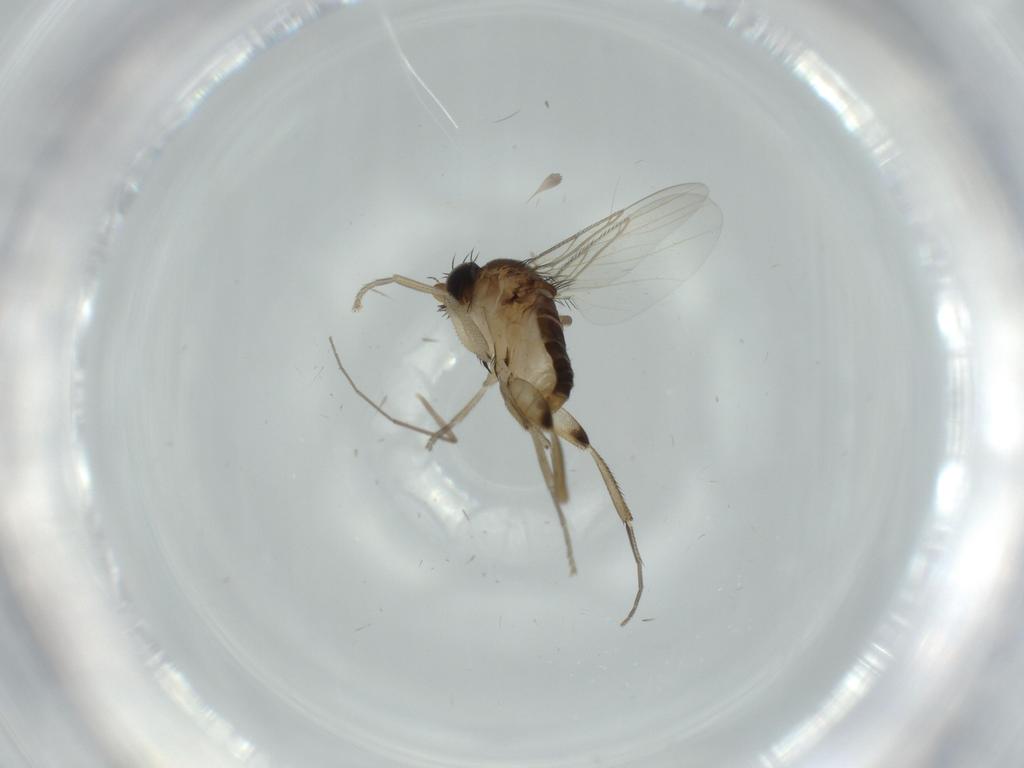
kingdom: Animalia
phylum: Arthropoda
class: Insecta
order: Diptera
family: Phoridae
